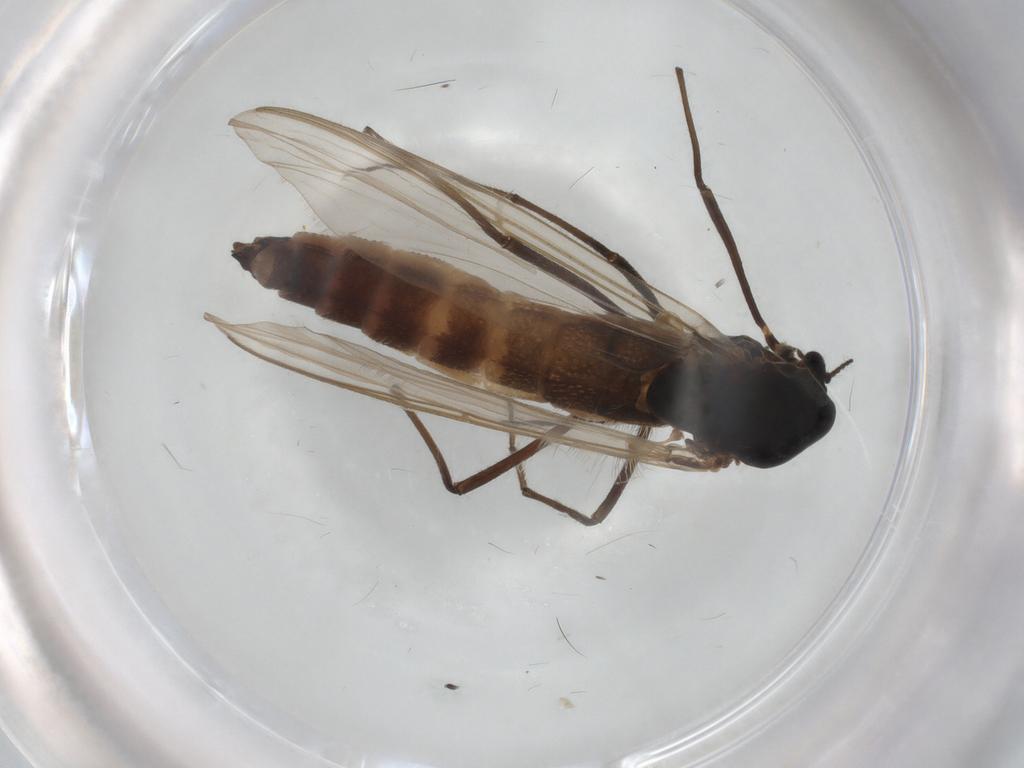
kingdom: Animalia
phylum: Arthropoda
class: Insecta
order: Diptera
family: Chironomidae
